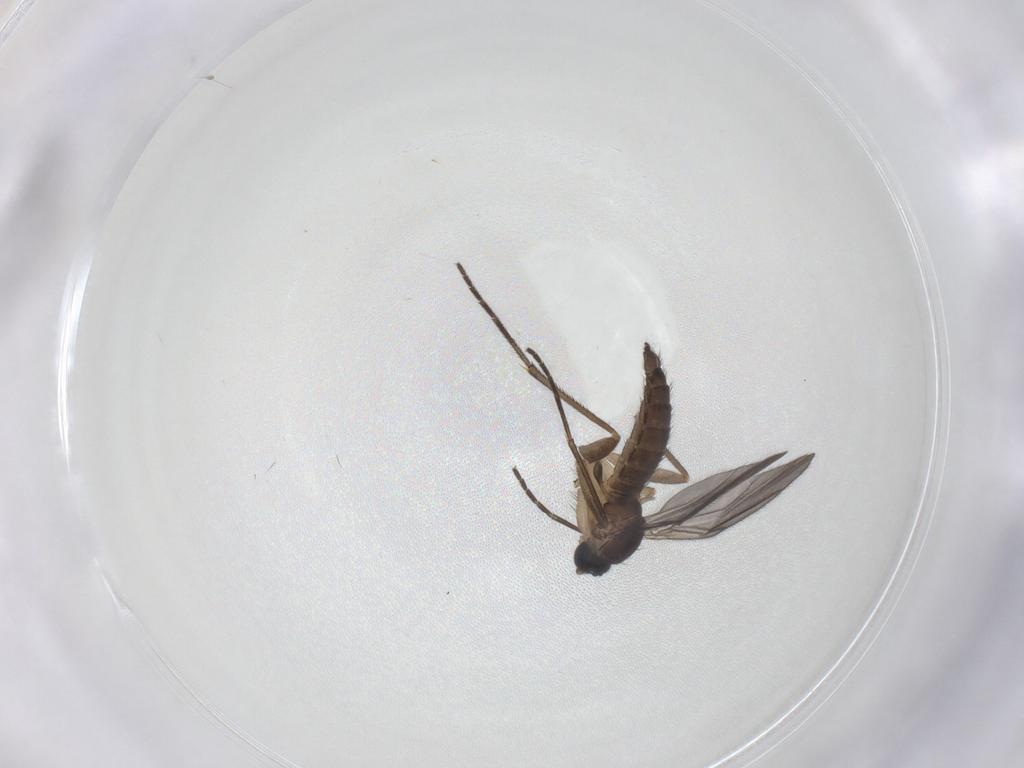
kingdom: Animalia
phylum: Arthropoda
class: Insecta
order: Diptera
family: Sciaridae
